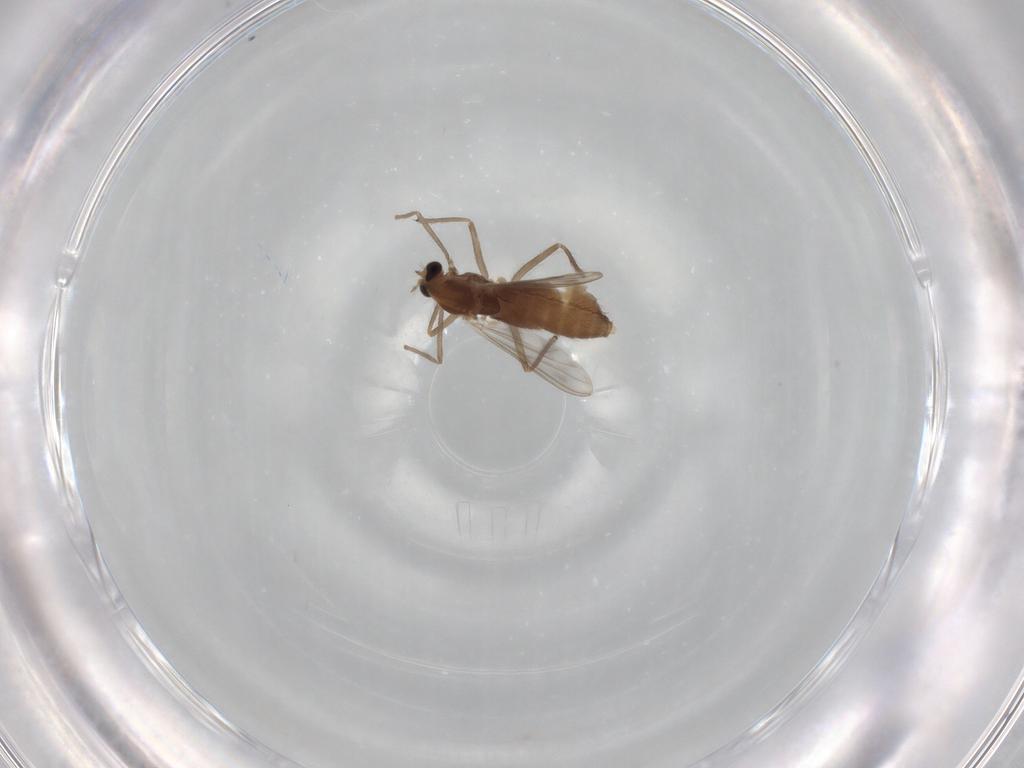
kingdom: Animalia
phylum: Arthropoda
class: Insecta
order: Diptera
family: Chironomidae
